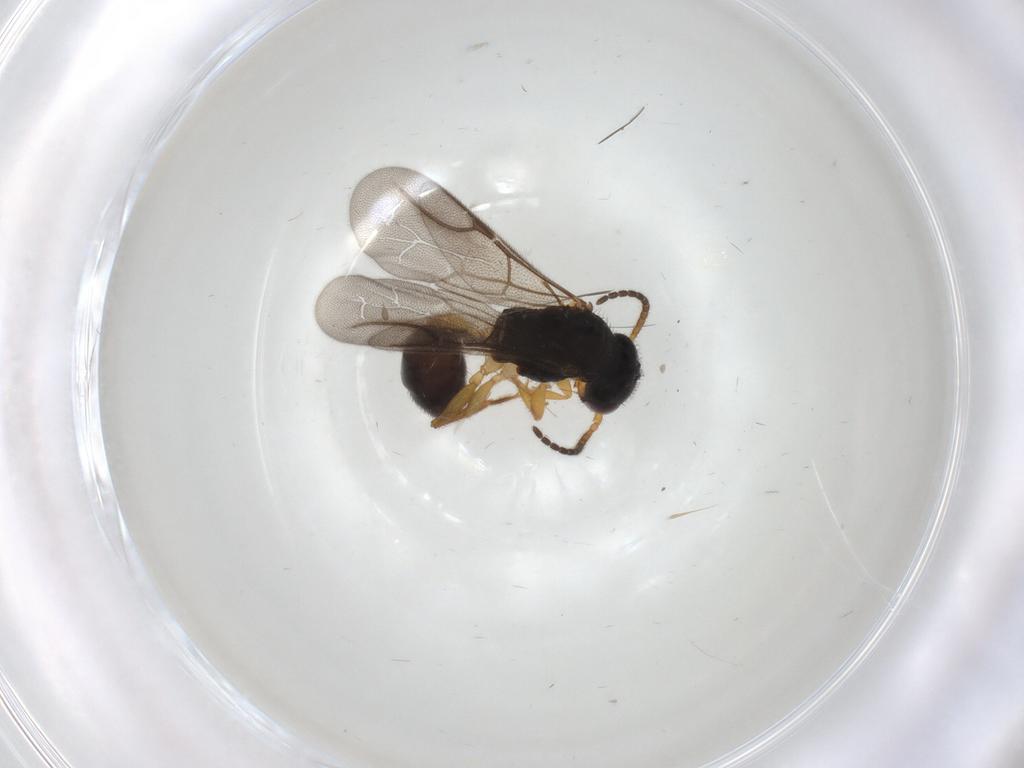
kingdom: Animalia
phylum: Arthropoda
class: Insecta
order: Hymenoptera
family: Bethylidae
